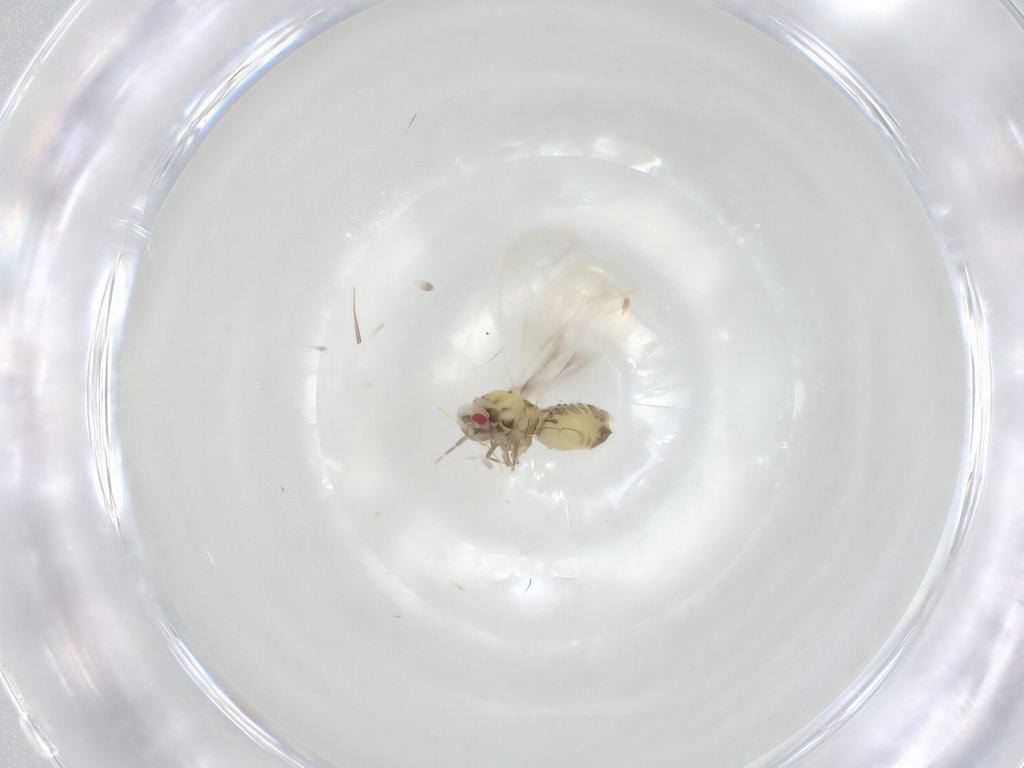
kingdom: Animalia
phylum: Arthropoda
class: Insecta
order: Hemiptera
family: Aleyrodidae
